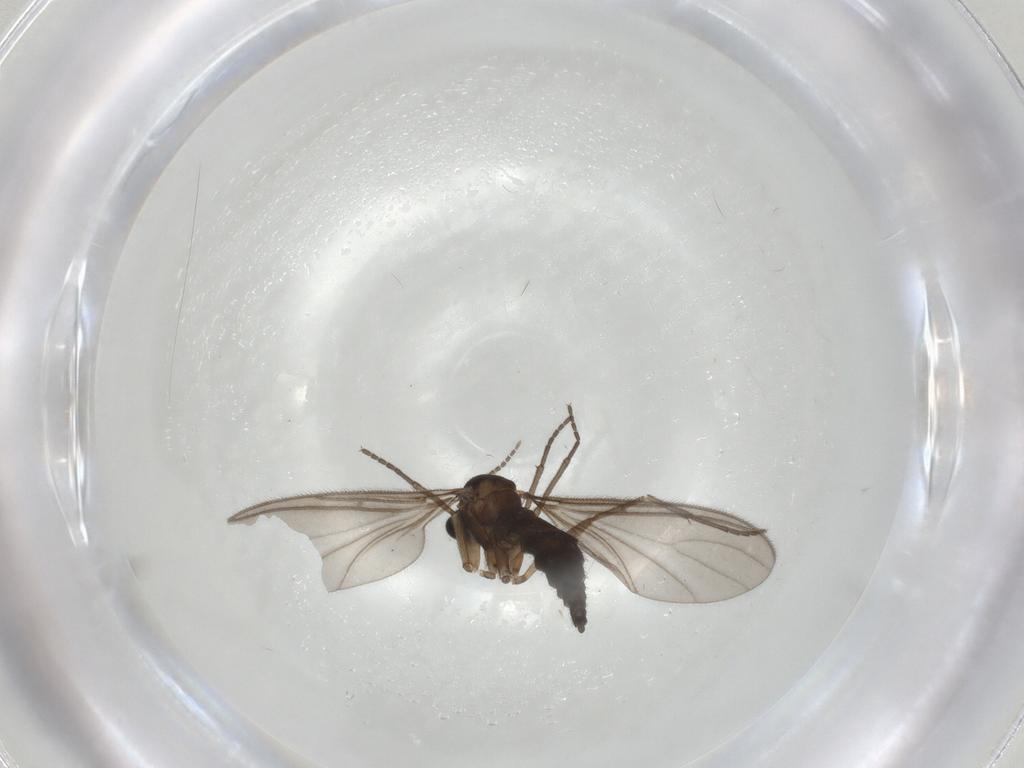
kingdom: Animalia
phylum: Arthropoda
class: Insecta
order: Diptera
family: Sciaridae
